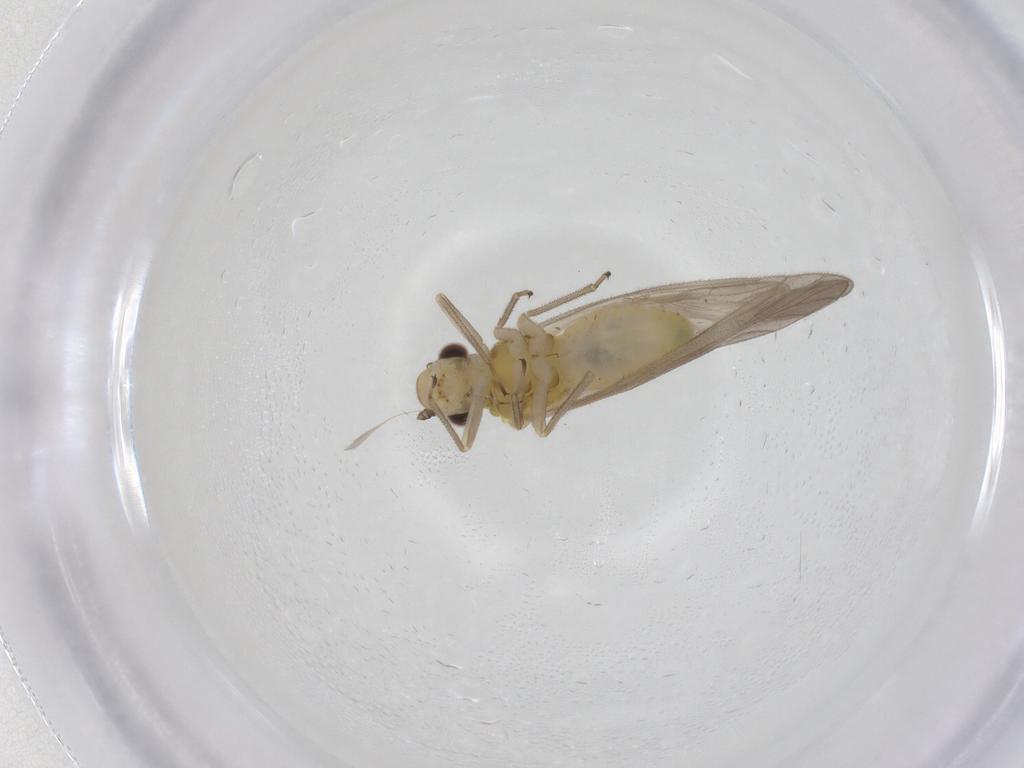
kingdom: Animalia
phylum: Arthropoda
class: Insecta
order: Psocodea
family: Caeciliusidae
